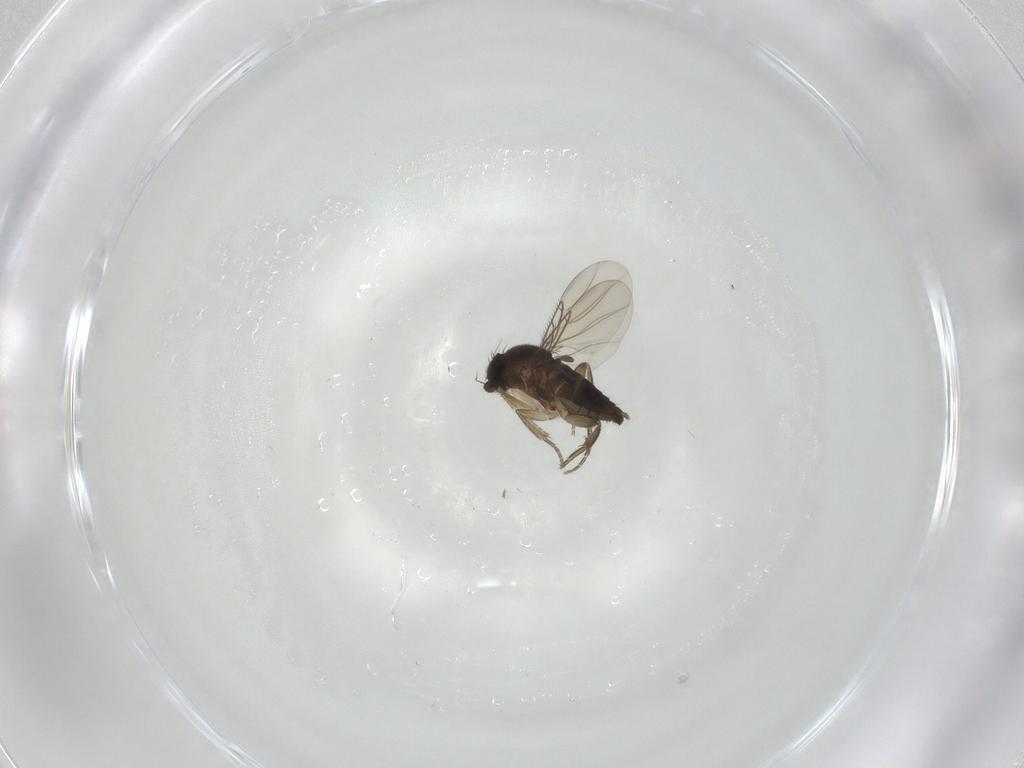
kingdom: Animalia
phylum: Arthropoda
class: Insecta
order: Diptera
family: Phoridae
